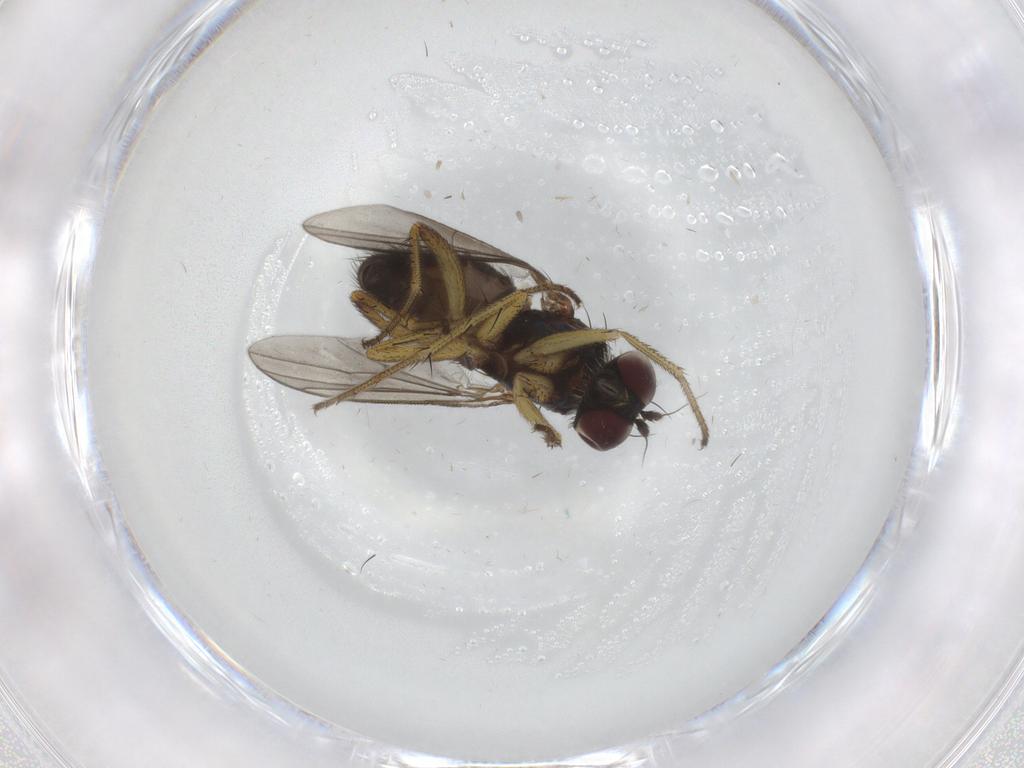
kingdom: Animalia
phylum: Arthropoda
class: Insecta
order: Diptera
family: Dolichopodidae
